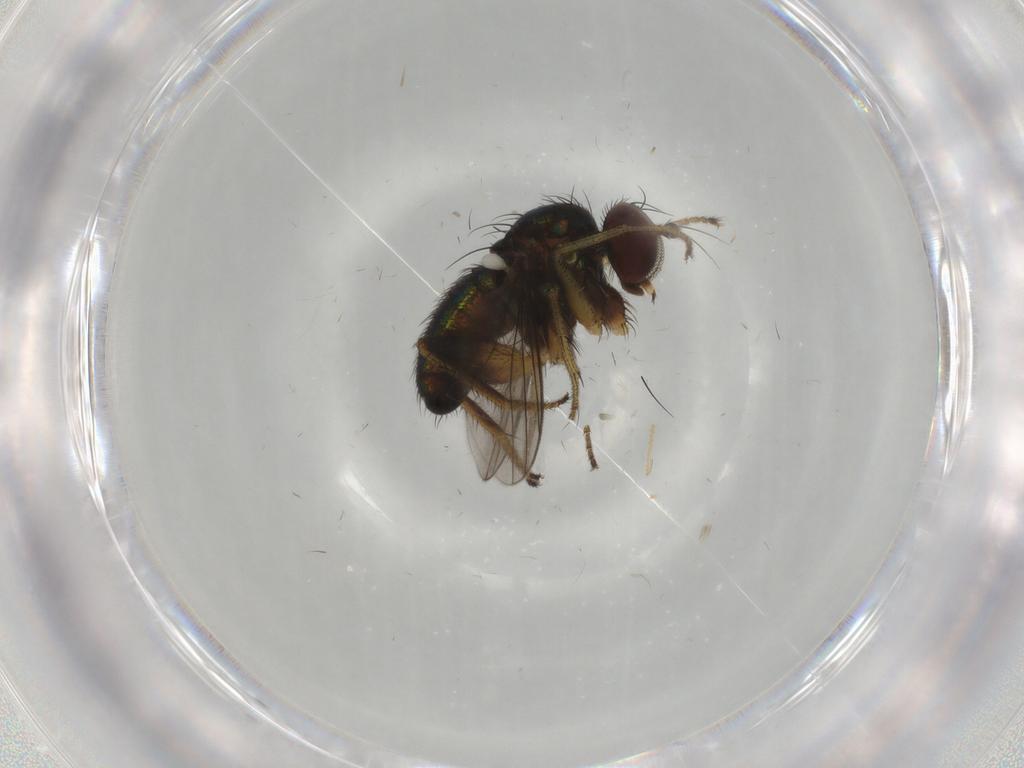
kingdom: Animalia
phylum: Arthropoda
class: Insecta
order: Diptera
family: Dolichopodidae
